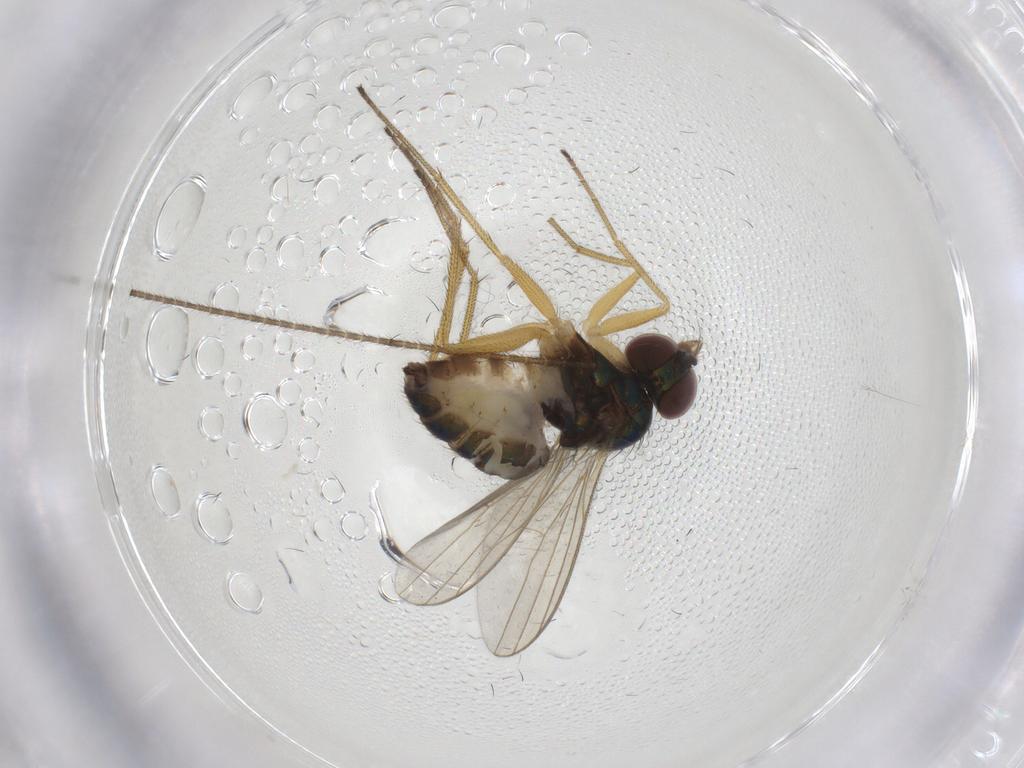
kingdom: Animalia
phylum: Arthropoda
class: Insecta
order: Diptera
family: Dolichopodidae
